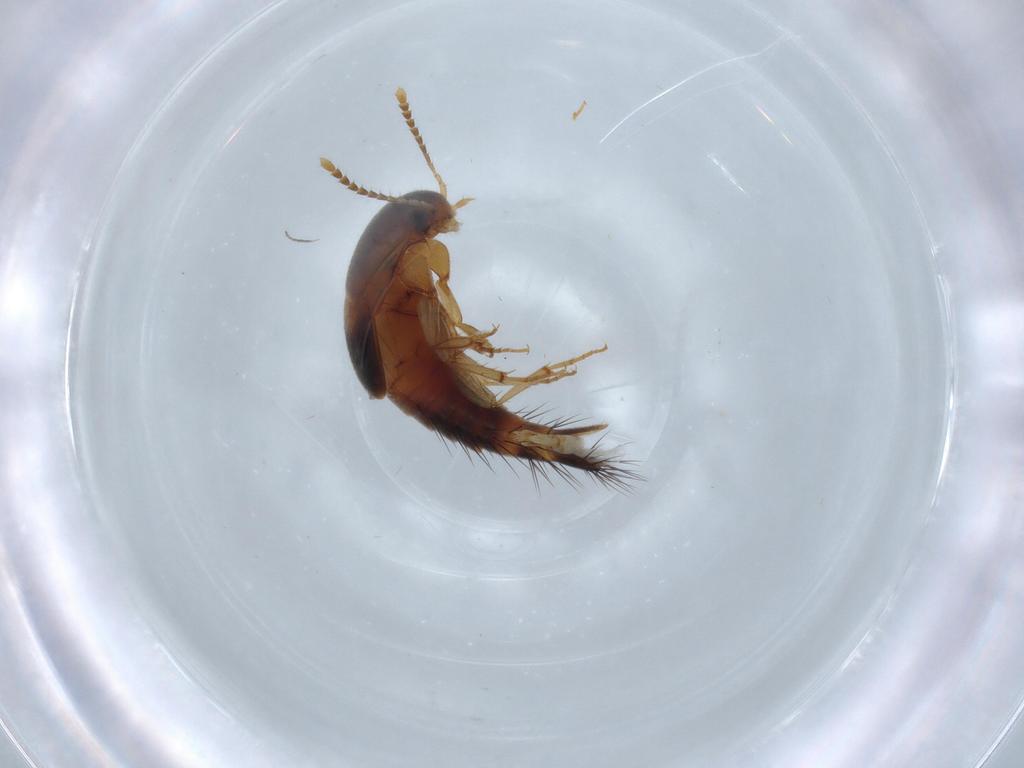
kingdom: Animalia
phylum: Arthropoda
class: Insecta
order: Coleoptera
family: Staphylinidae
